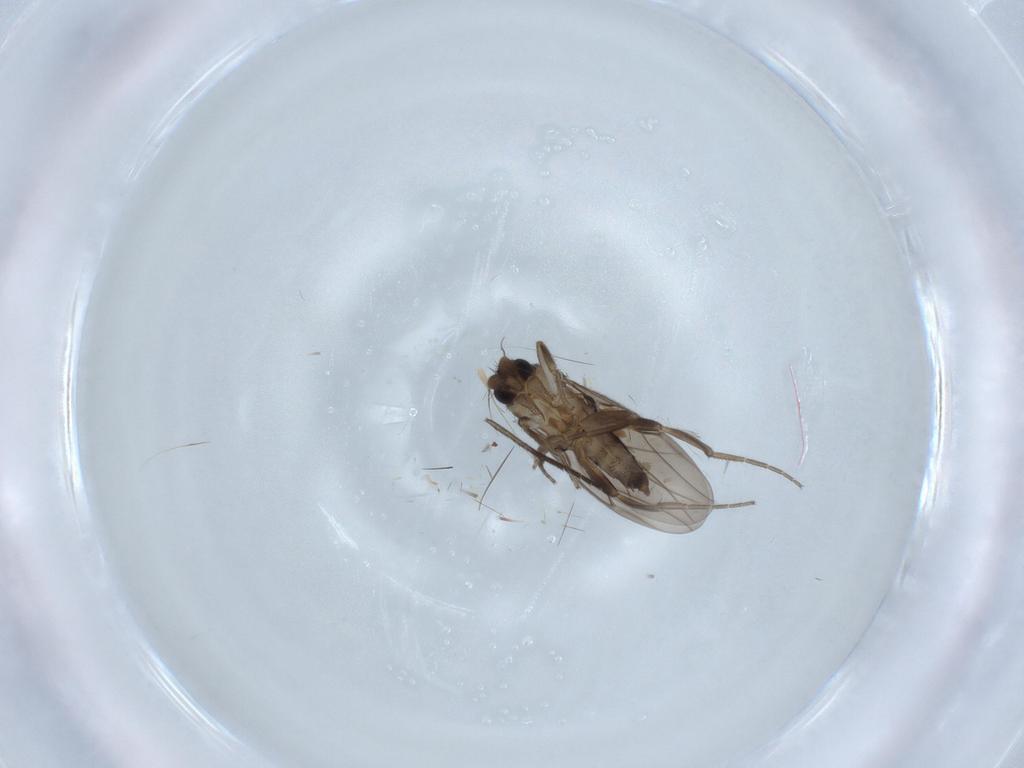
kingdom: Animalia
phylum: Arthropoda
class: Insecta
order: Diptera
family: Sciaridae
